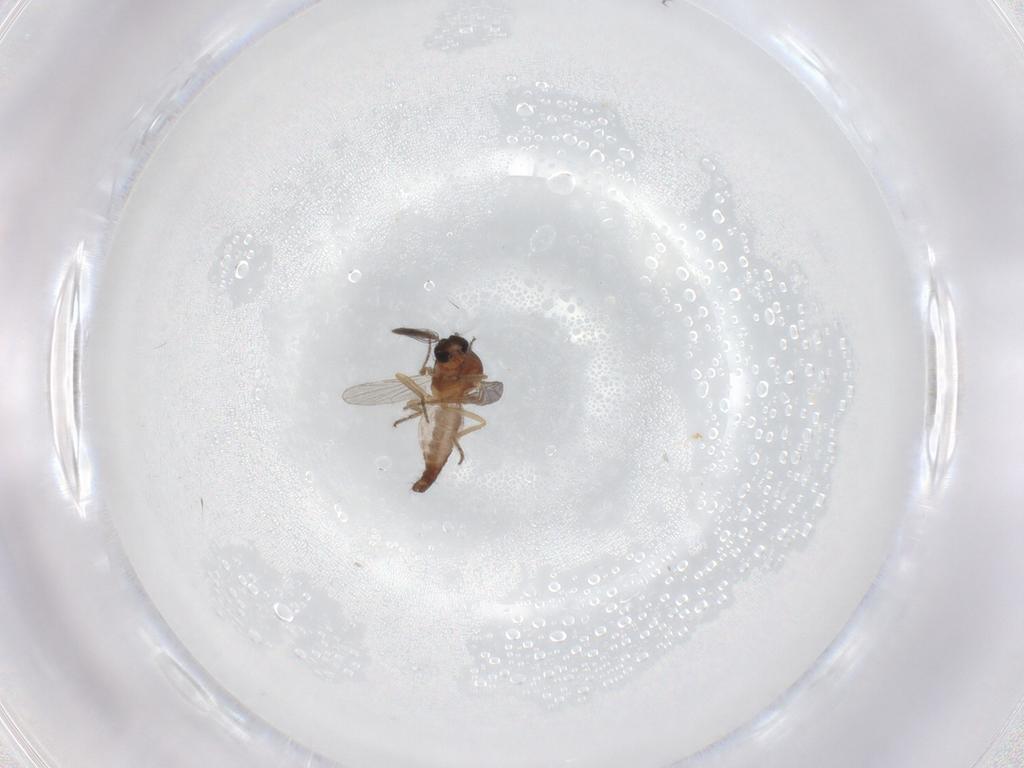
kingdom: Animalia
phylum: Arthropoda
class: Insecta
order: Diptera
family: Ceratopogonidae
